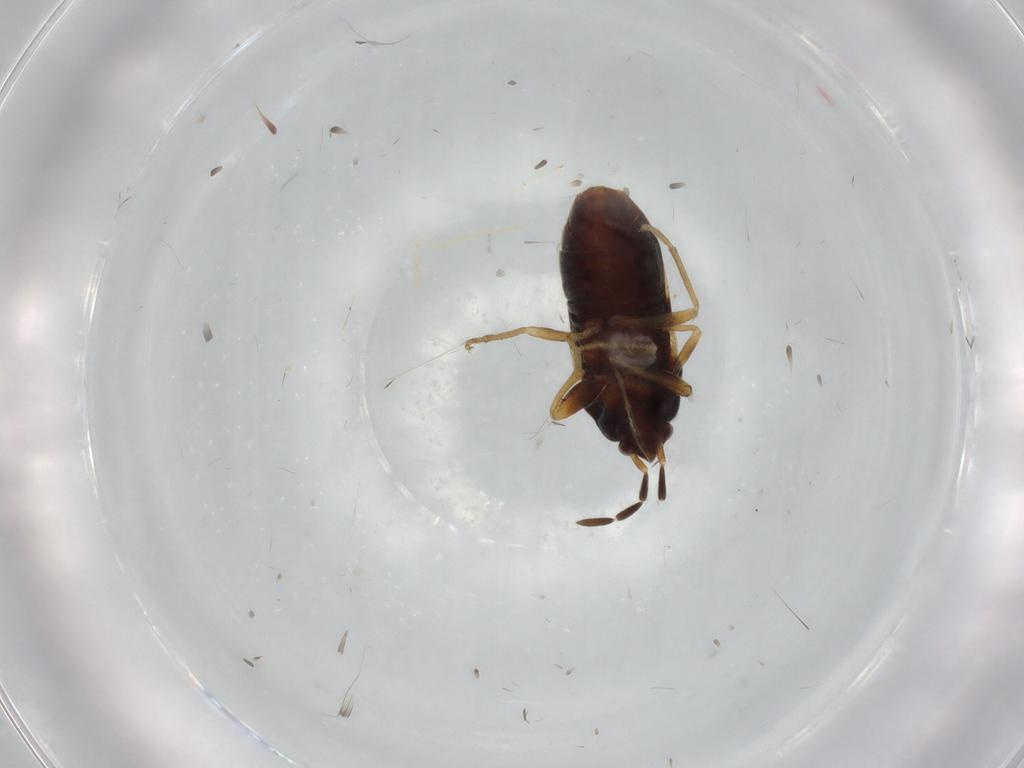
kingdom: Animalia
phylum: Arthropoda
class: Insecta
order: Hemiptera
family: Rhyparochromidae
